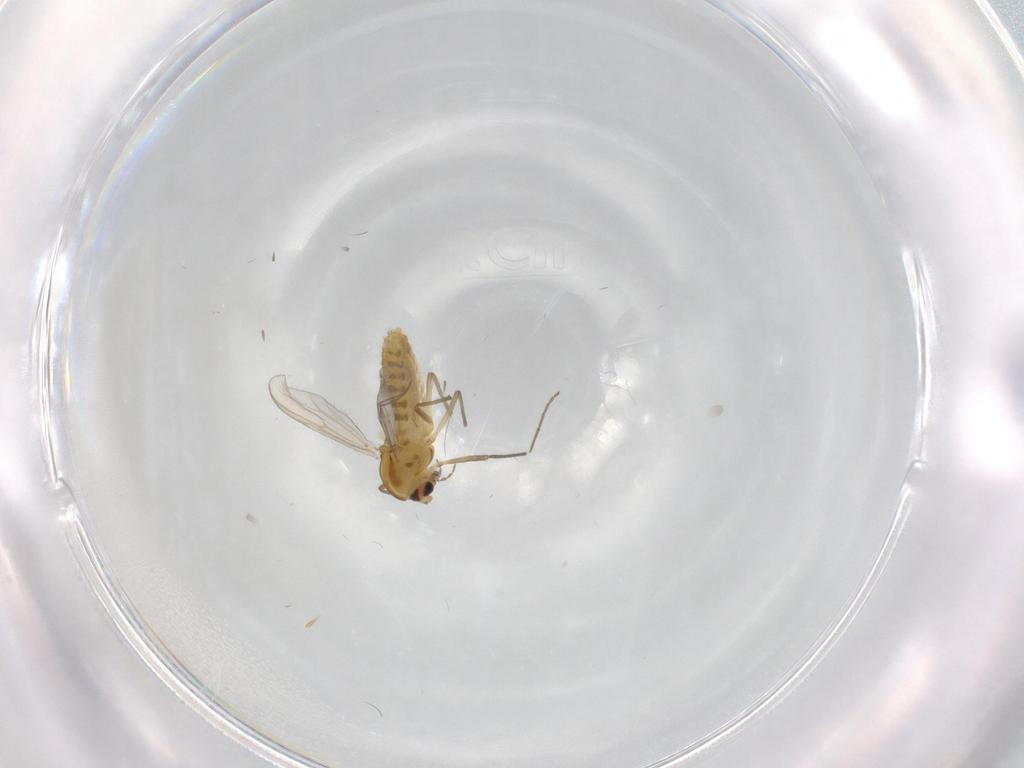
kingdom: Animalia
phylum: Arthropoda
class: Insecta
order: Diptera
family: Chironomidae
